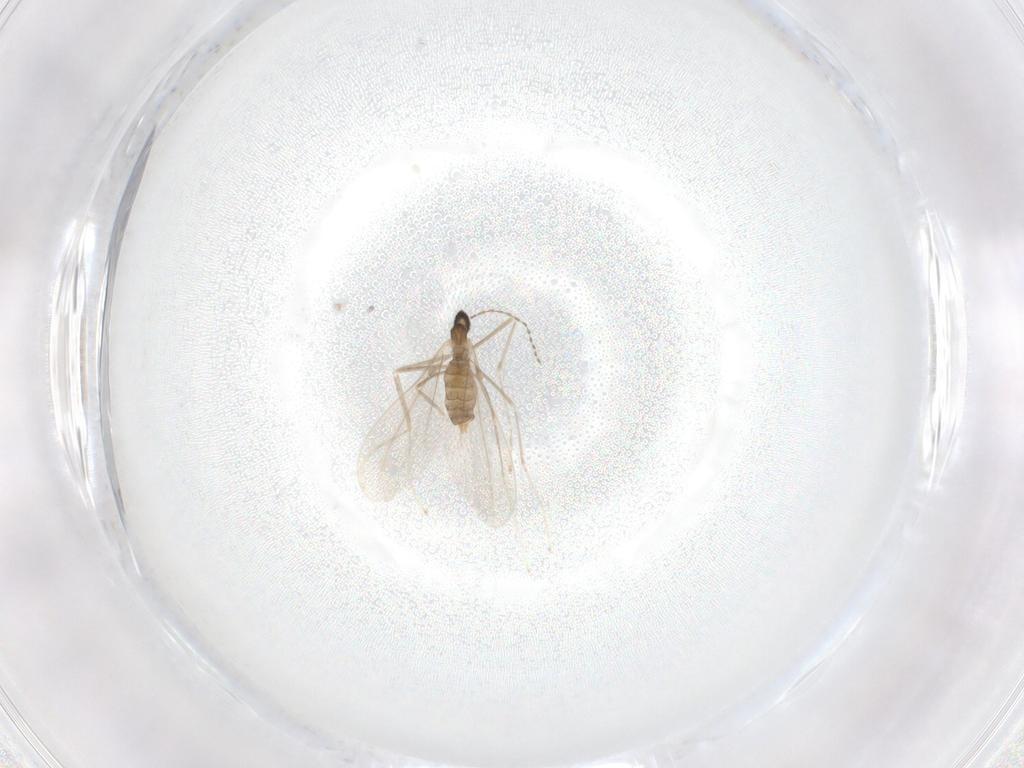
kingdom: Animalia
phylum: Arthropoda
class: Insecta
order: Diptera
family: Cecidomyiidae
